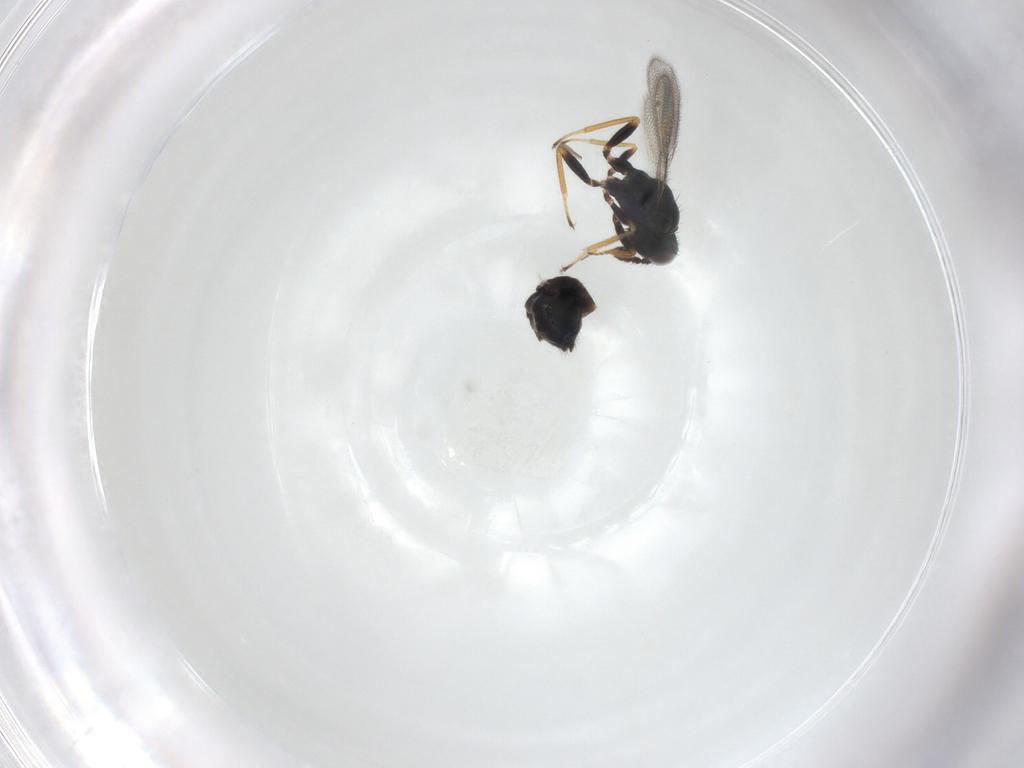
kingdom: Animalia
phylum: Arthropoda
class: Insecta
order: Hymenoptera
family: Eulophidae
